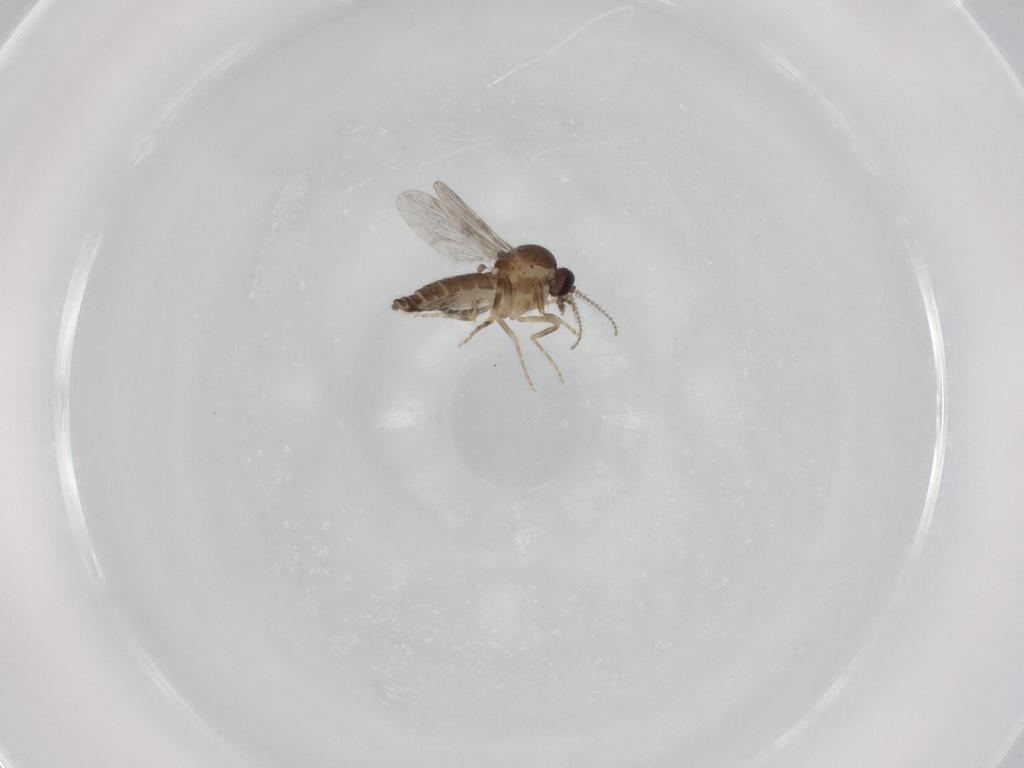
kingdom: Animalia
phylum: Arthropoda
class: Insecta
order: Diptera
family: Ceratopogonidae
